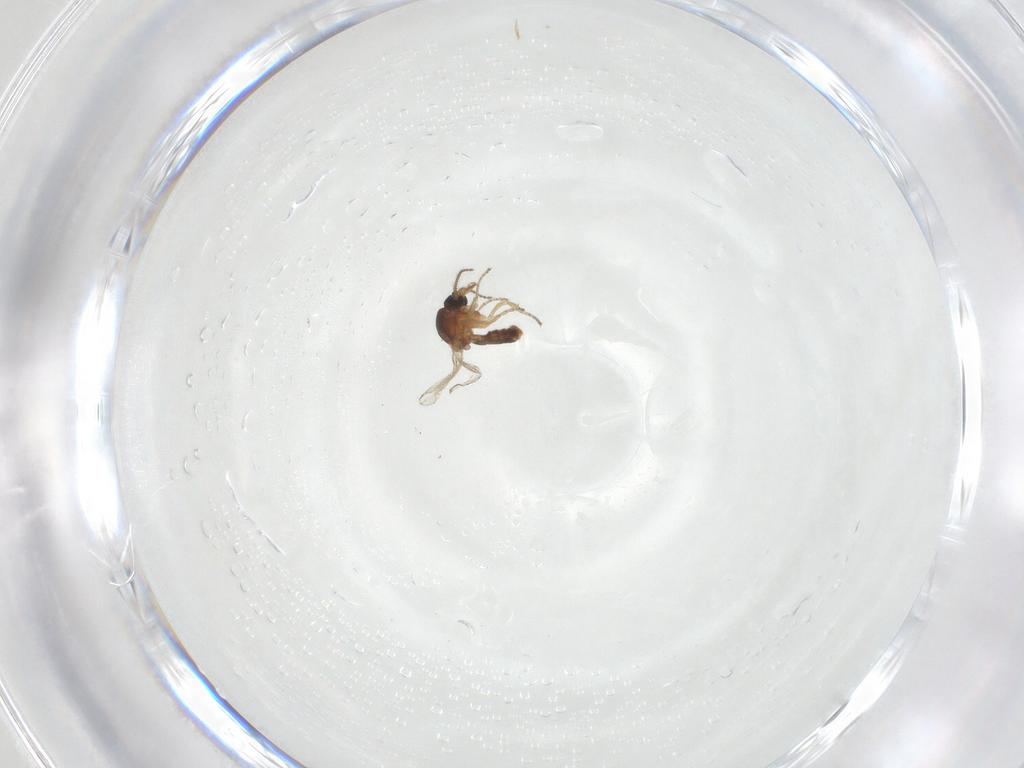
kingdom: Animalia
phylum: Arthropoda
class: Insecta
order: Diptera
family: Ceratopogonidae
